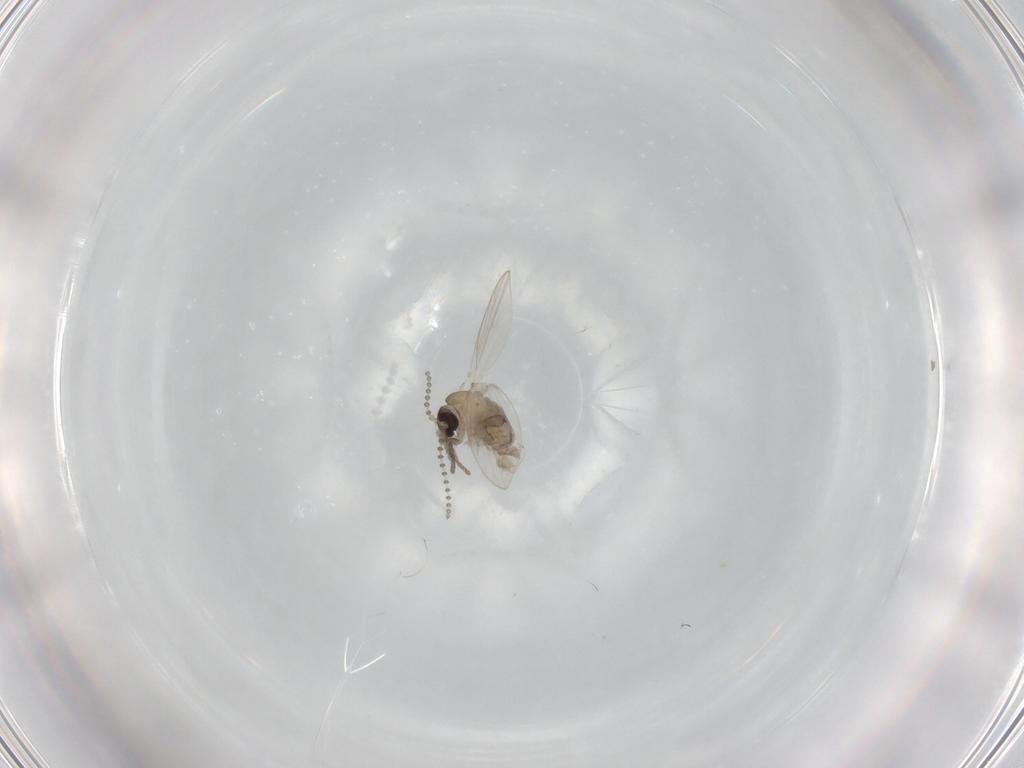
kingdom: Animalia
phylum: Arthropoda
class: Insecta
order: Diptera
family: Psychodidae
